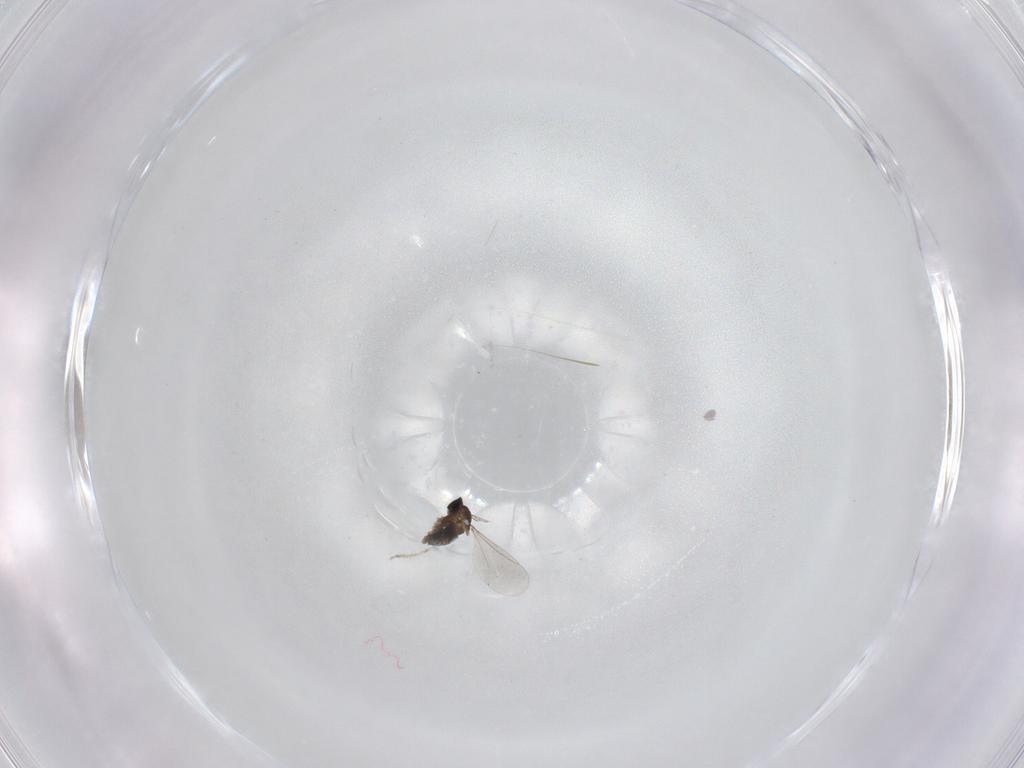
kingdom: Animalia
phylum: Arthropoda
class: Insecta
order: Diptera
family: Cecidomyiidae
